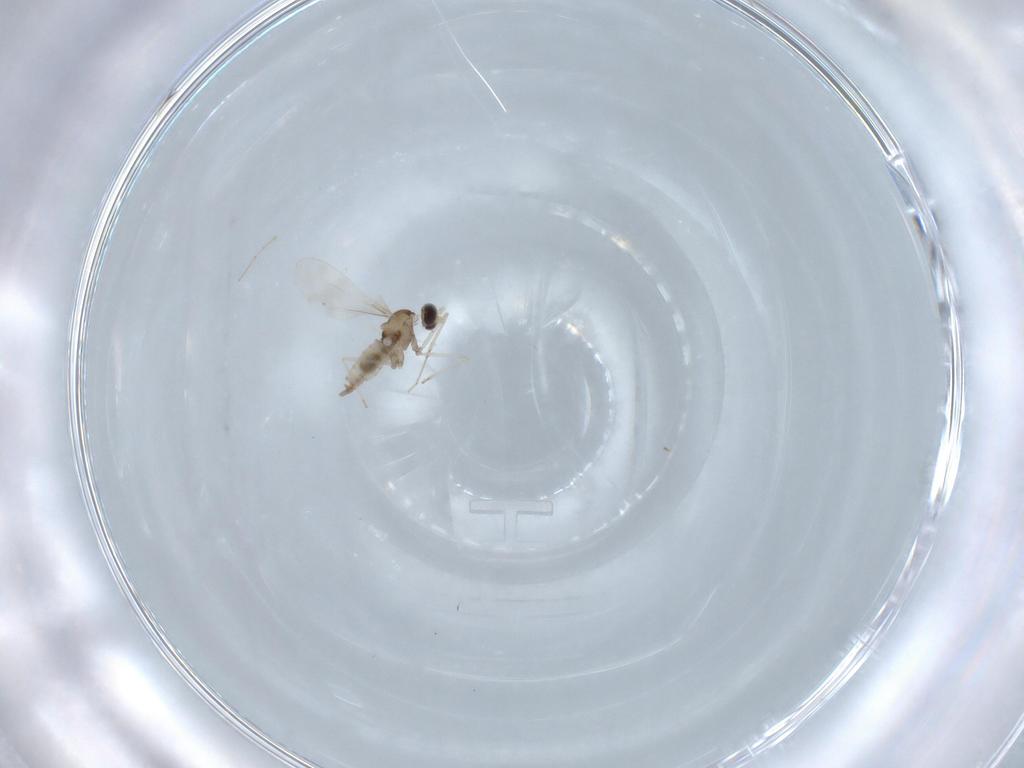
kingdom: Animalia
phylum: Arthropoda
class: Insecta
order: Diptera
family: Cecidomyiidae
